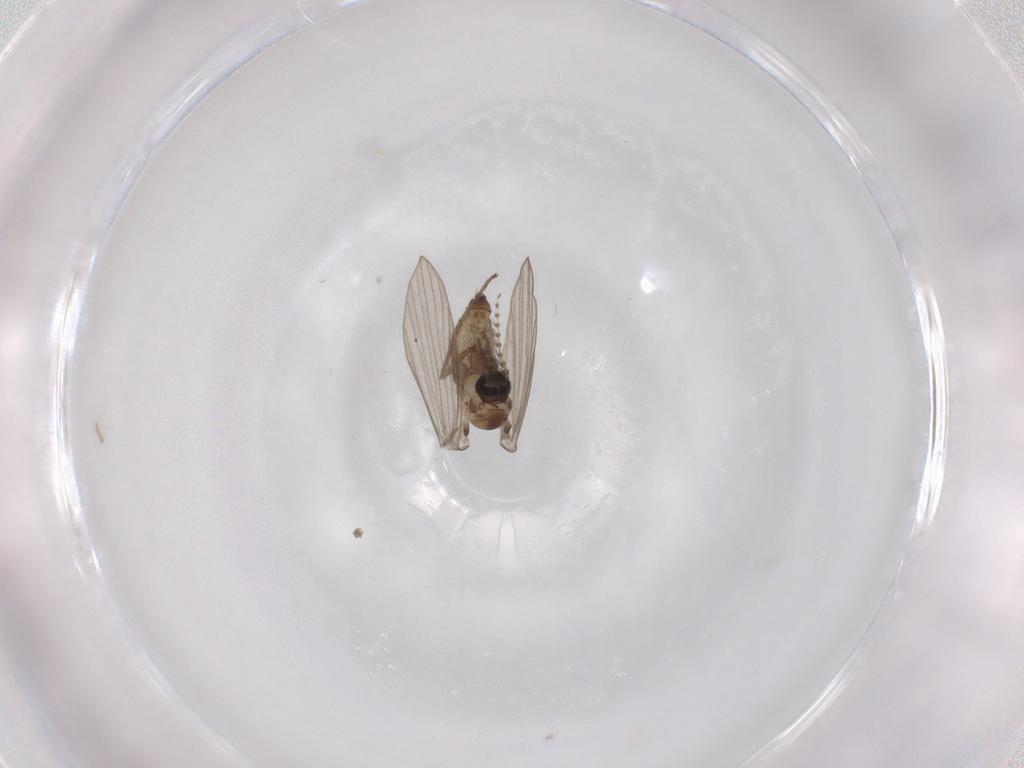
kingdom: Animalia
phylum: Arthropoda
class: Insecta
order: Diptera
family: Psychodidae
